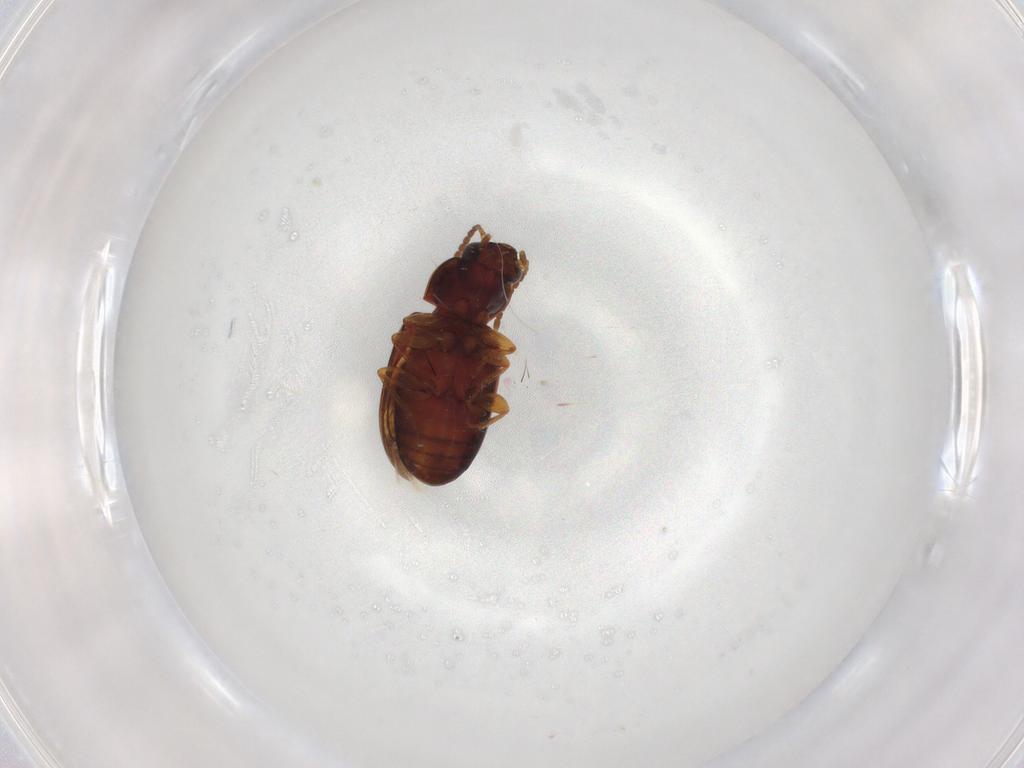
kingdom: Animalia
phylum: Arthropoda
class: Insecta
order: Coleoptera
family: Carabidae
